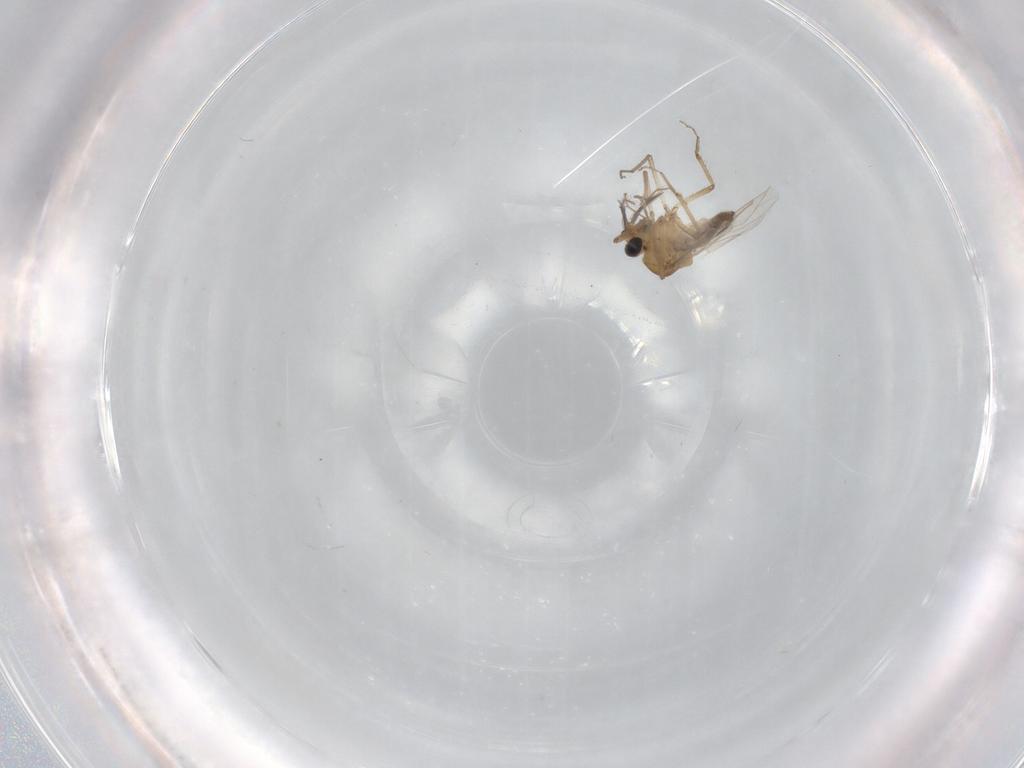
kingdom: Animalia
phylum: Arthropoda
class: Insecta
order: Diptera
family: Ceratopogonidae
